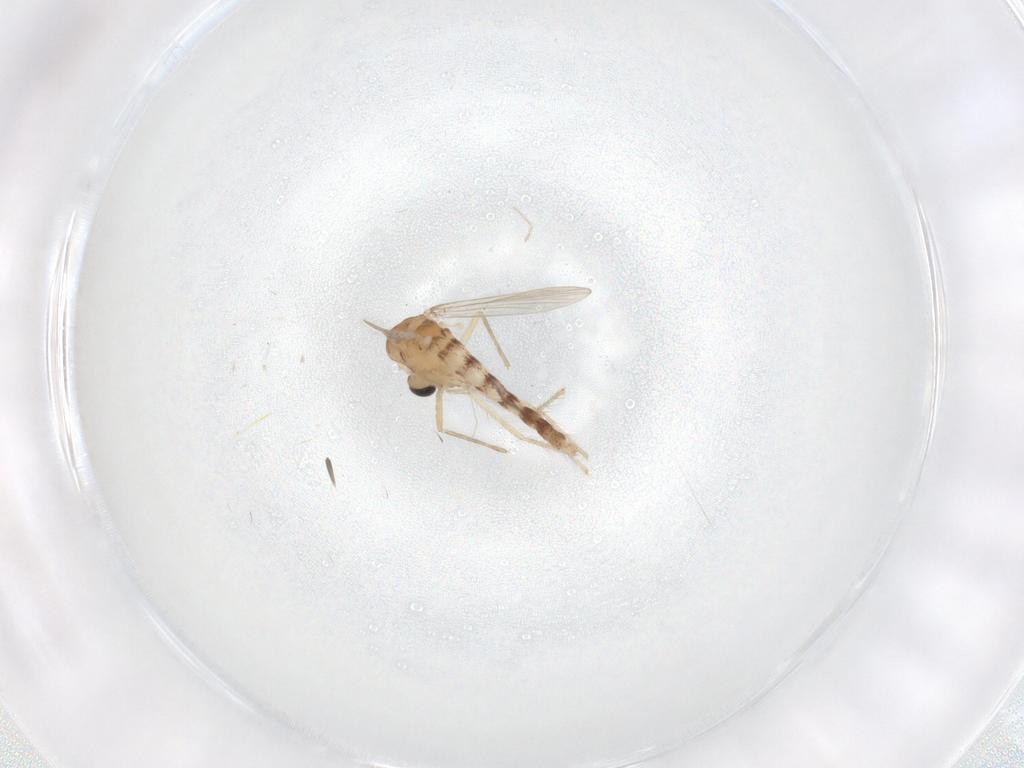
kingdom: Animalia
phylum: Arthropoda
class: Insecta
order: Diptera
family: Chironomidae
